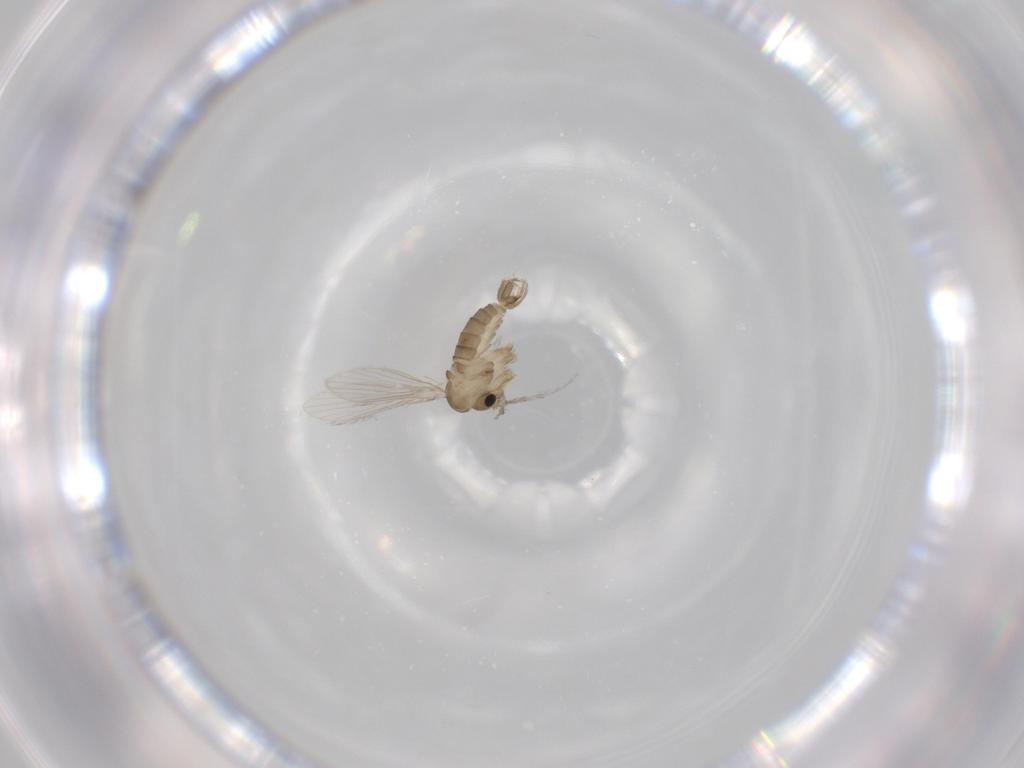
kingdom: Animalia
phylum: Arthropoda
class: Insecta
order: Diptera
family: Psychodidae
